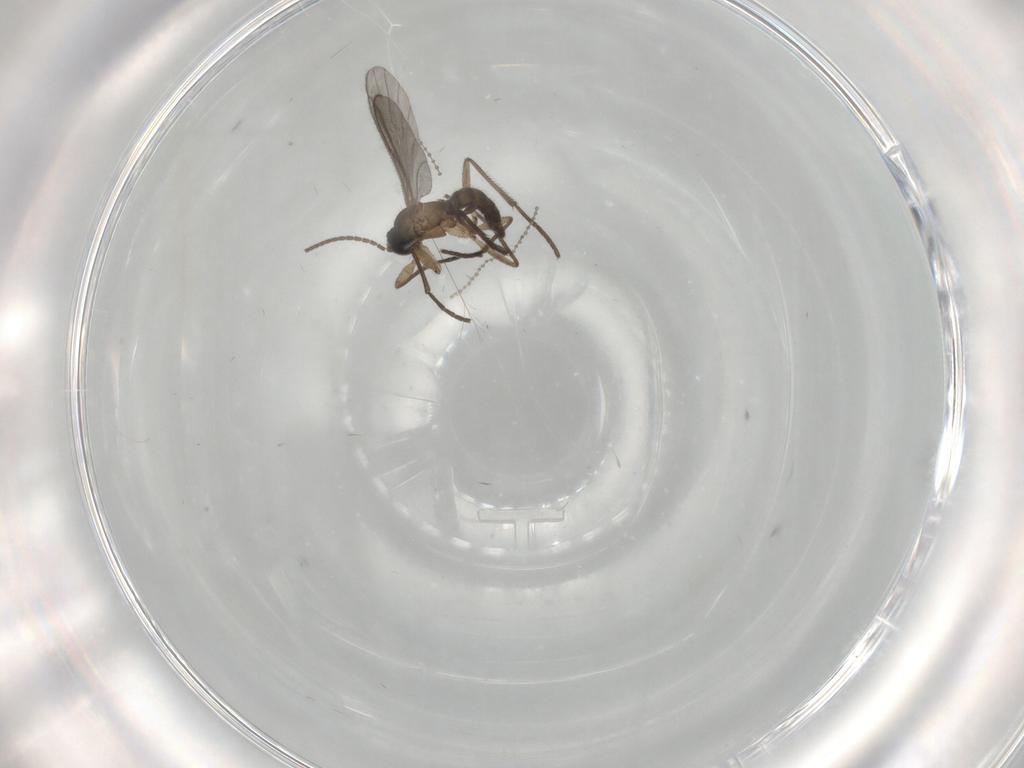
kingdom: Animalia
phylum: Arthropoda
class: Insecta
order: Diptera
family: Sciaridae
